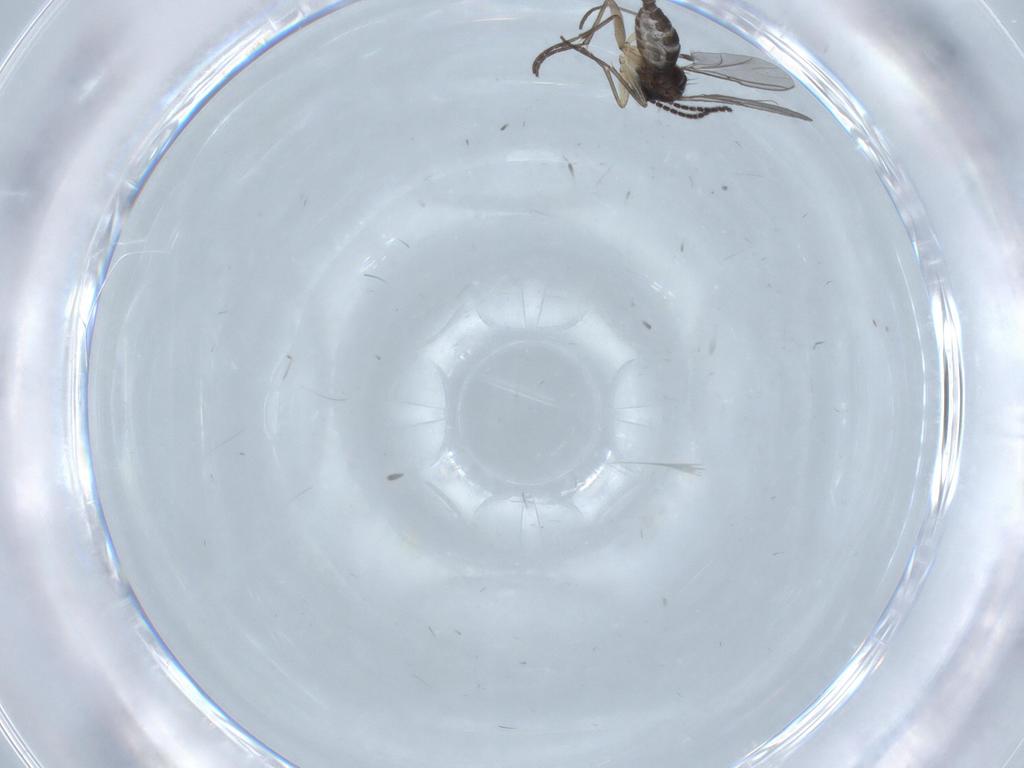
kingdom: Animalia
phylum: Arthropoda
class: Insecta
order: Diptera
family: Sciaridae
